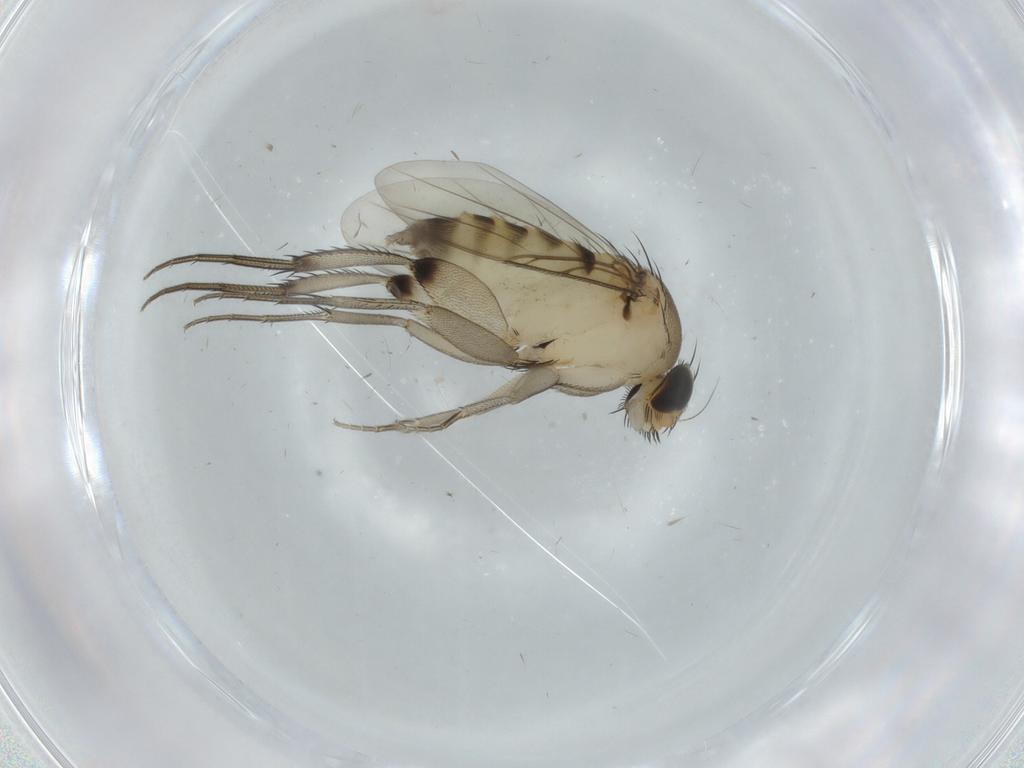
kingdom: Animalia
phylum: Arthropoda
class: Insecta
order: Diptera
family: Phoridae
